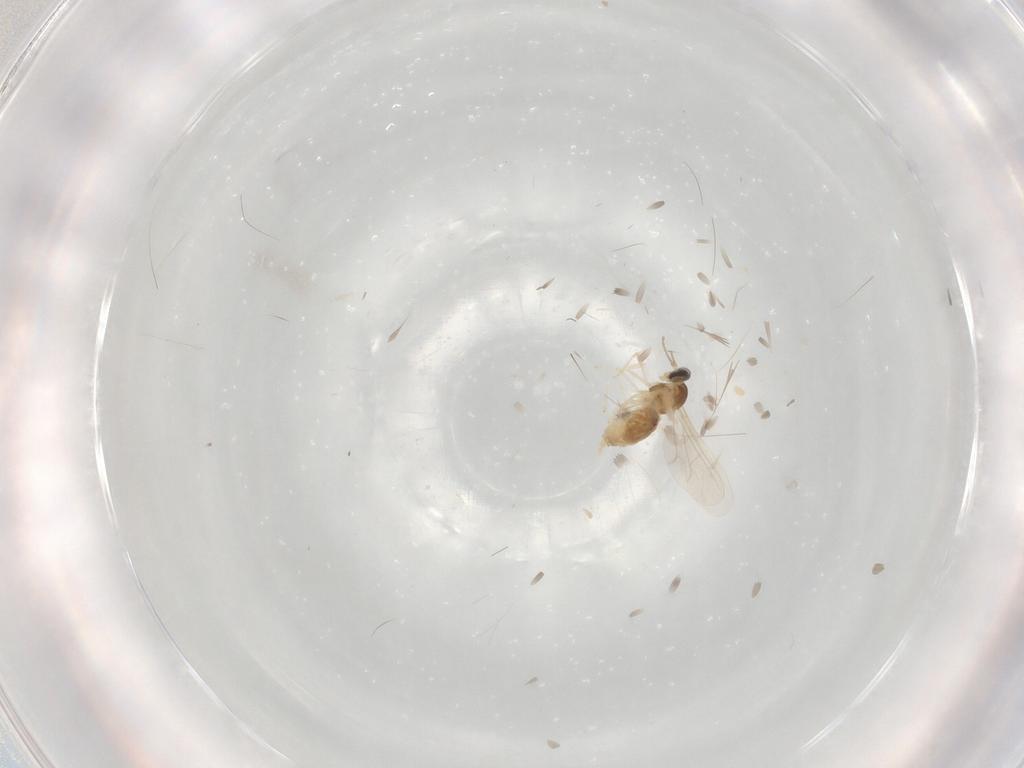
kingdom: Animalia
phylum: Arthropoda
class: Insecta
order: Diptera
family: Cecidomyiidae
